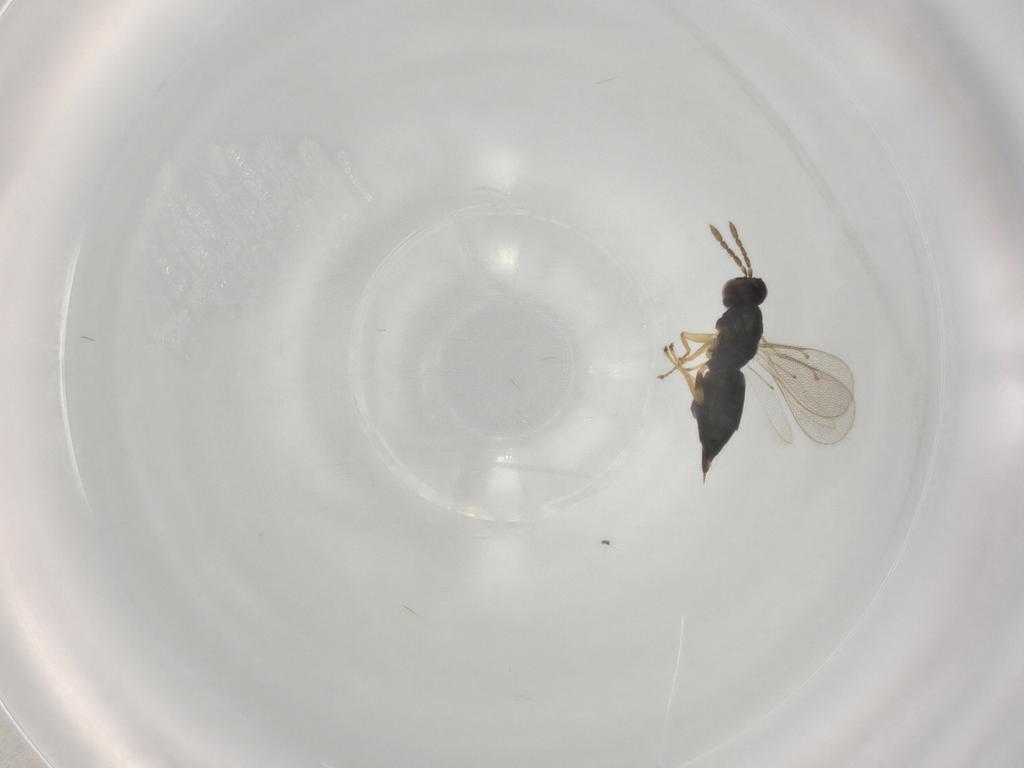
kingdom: Animalia
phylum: Arthropoda
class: Insecta
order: Hymenoptera
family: Eulophidae
